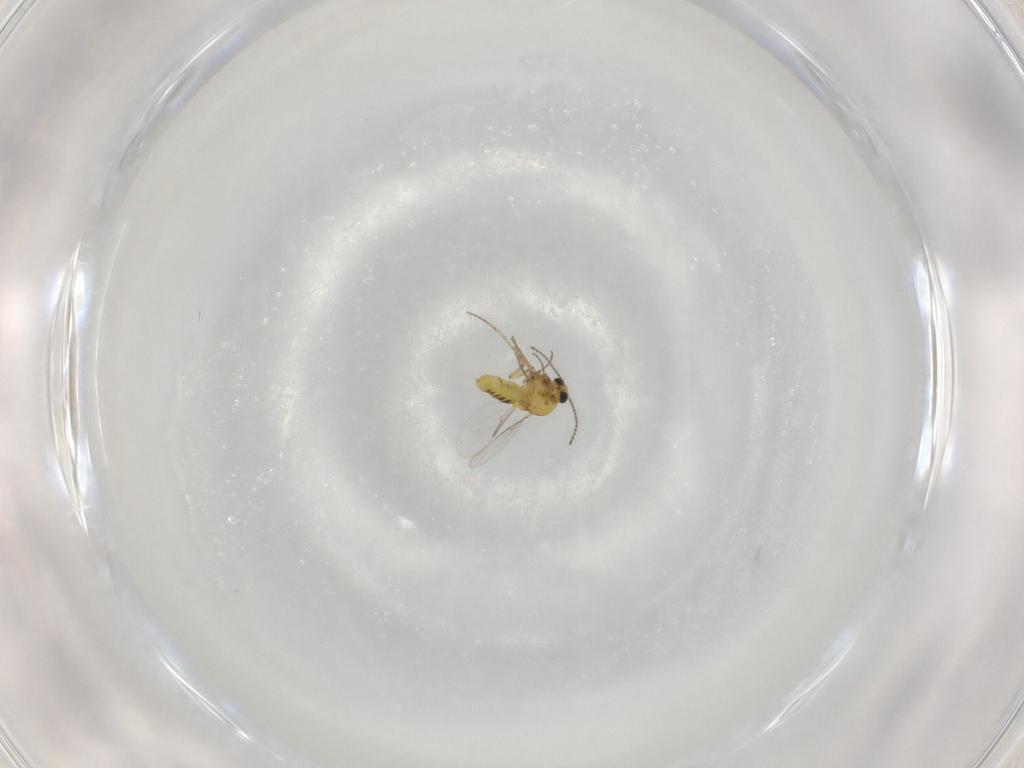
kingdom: Animalia
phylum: Arthropoda
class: Insecta
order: Diptera
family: Ceratopogonidae
